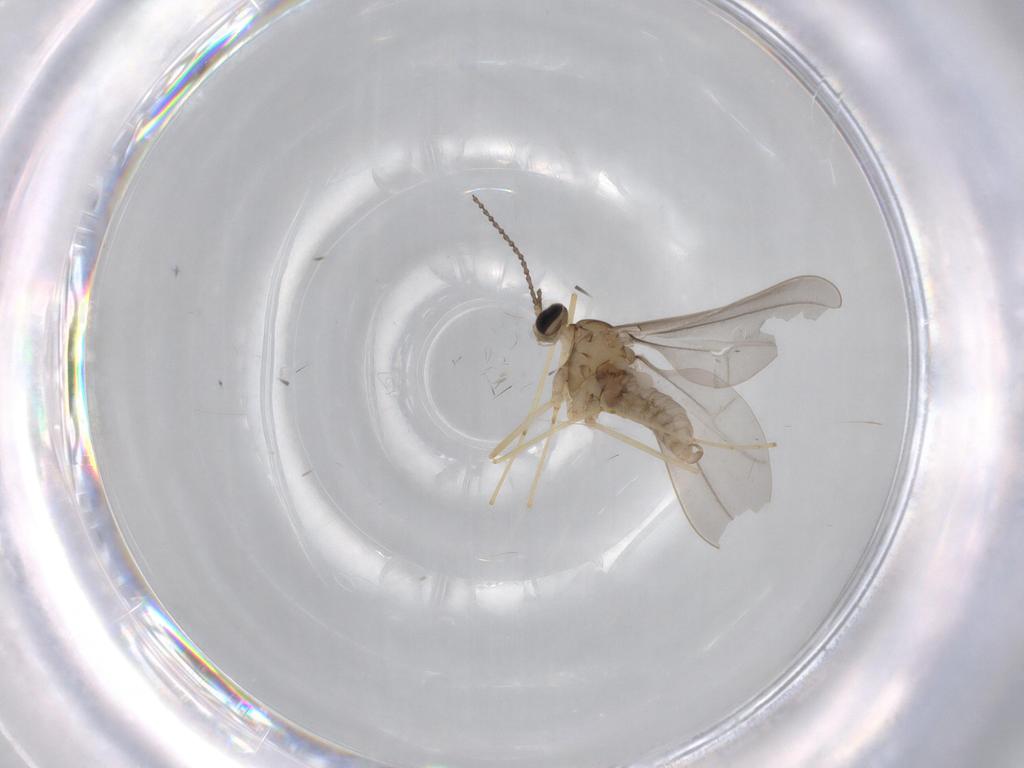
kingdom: Animalia
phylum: Arthropoda
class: Insecta
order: Diptera
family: Cecidomyiidae
